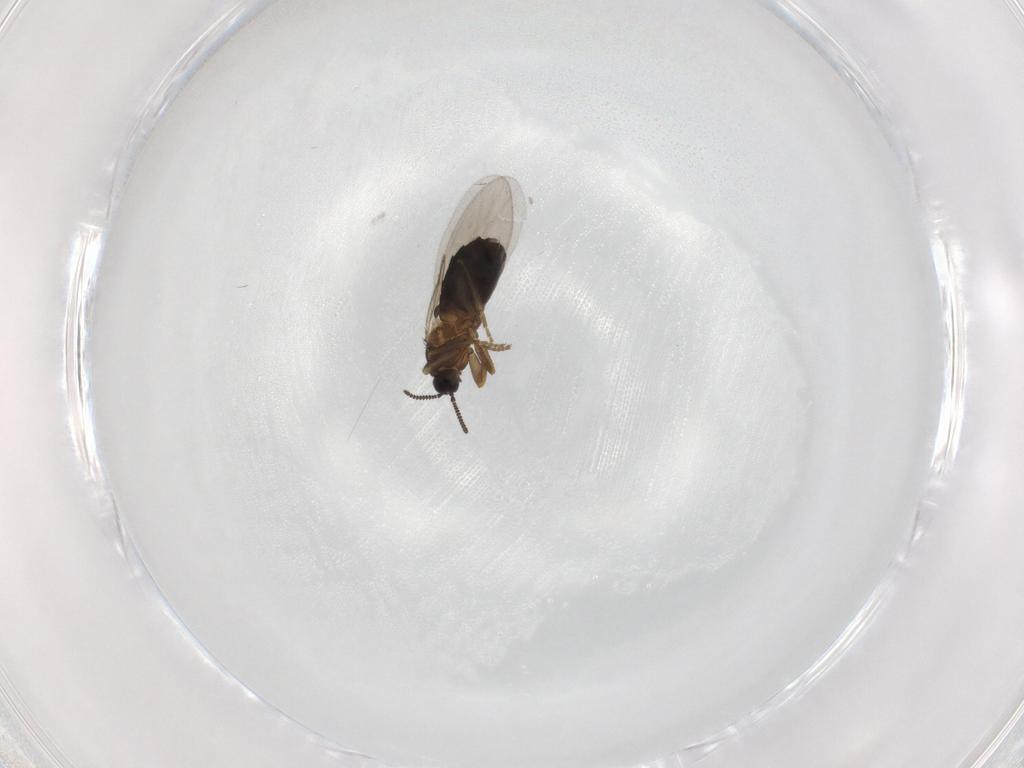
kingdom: Animalia
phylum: Arthropoda
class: Insecta
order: Diptera
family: Scatopsidae
